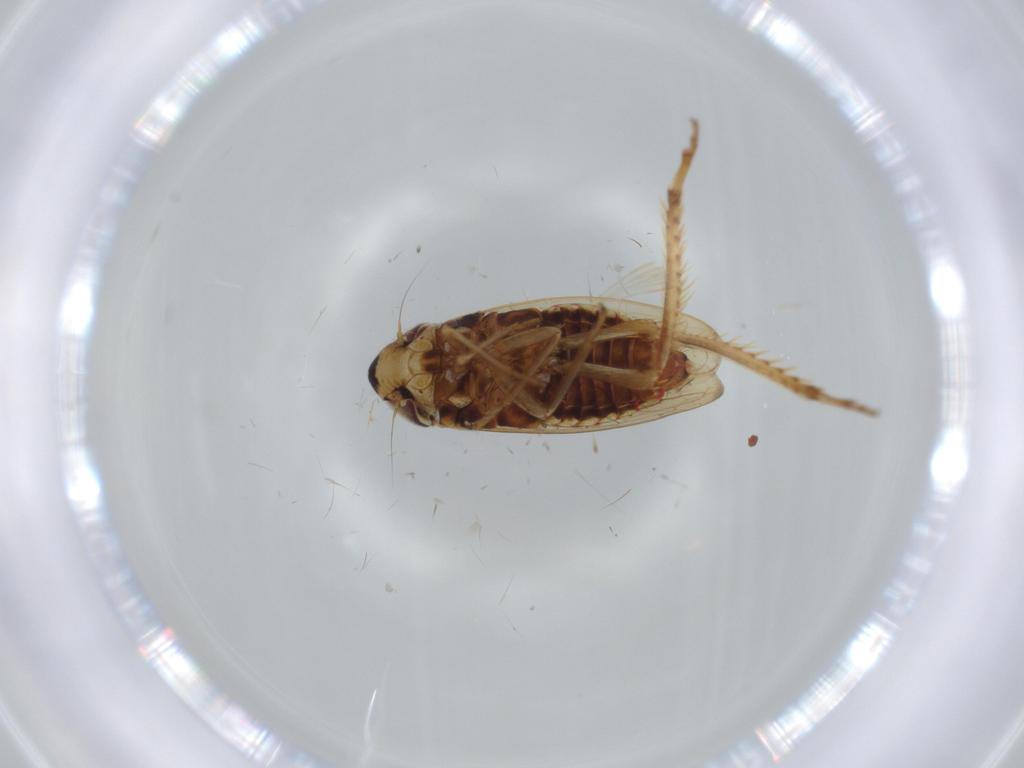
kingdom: Animalia
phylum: Arthropoda
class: Insecta
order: Hemiptera
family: Cicadellidae
